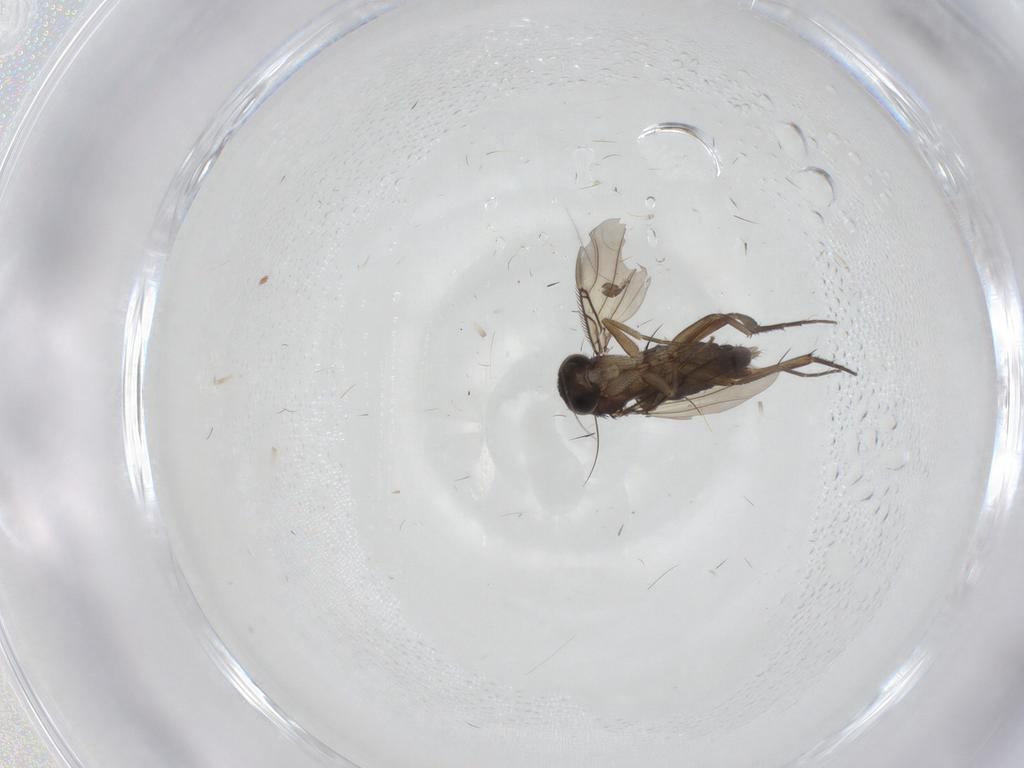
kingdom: Animalia
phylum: Arthropoda
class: Insecta
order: Diptera
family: Phoridae
